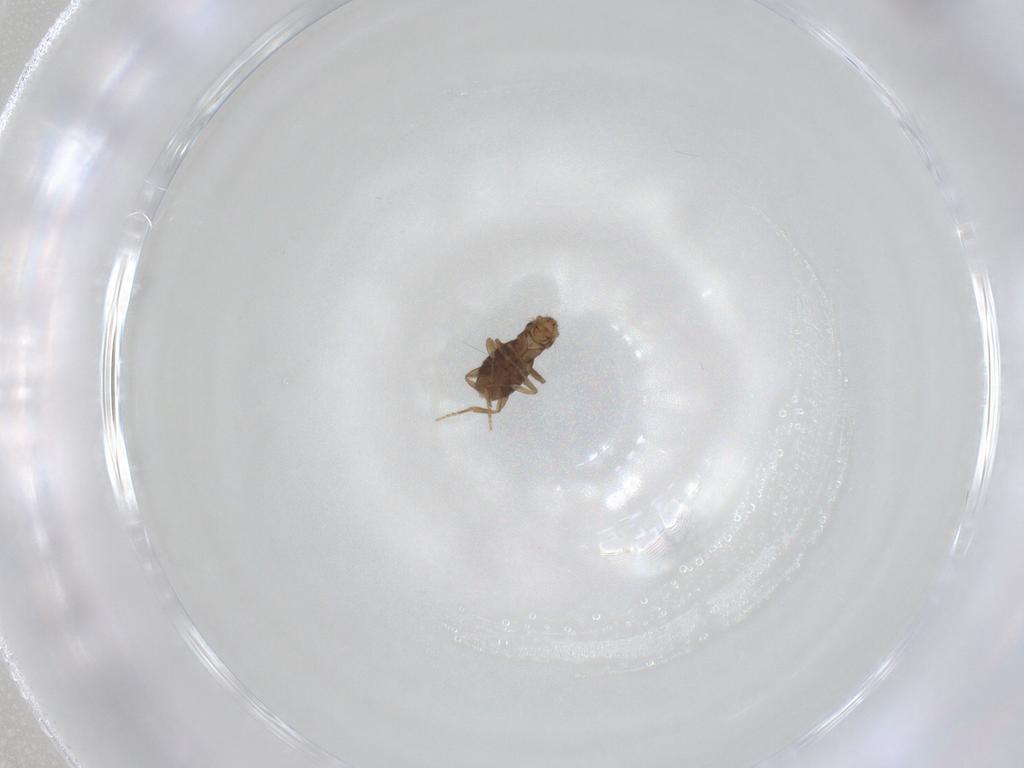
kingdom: Animalia
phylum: Arthropoda
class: Insecta
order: Diptera
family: Phoridae
